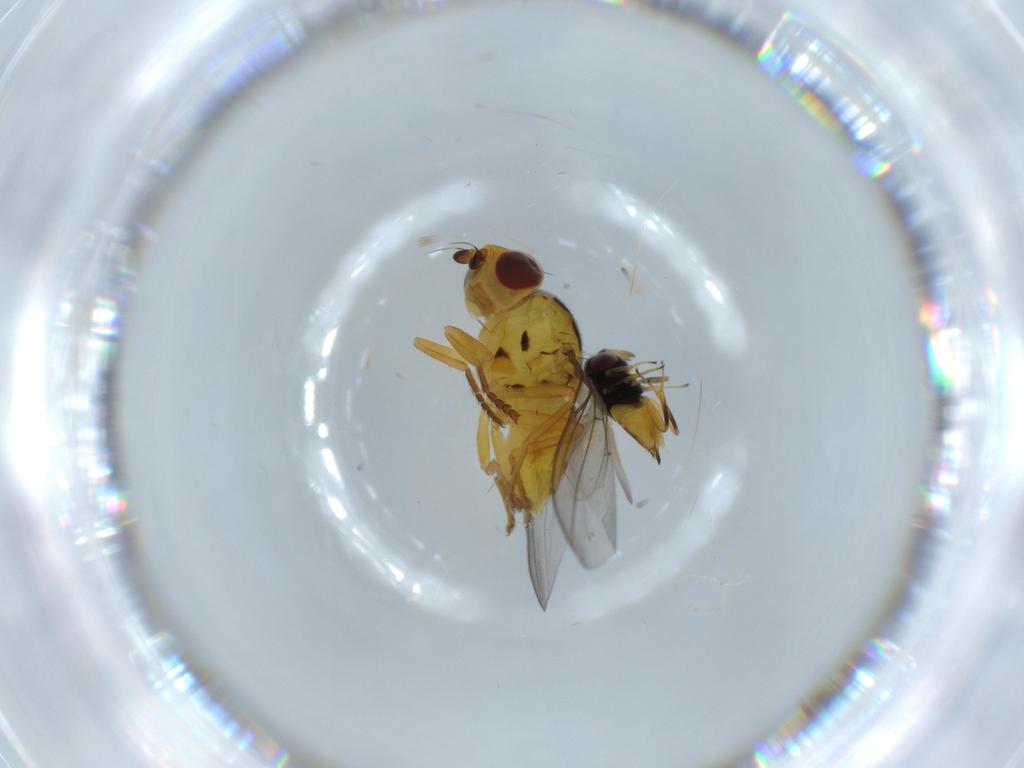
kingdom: Animalia
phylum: Arthropoda
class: Insecta
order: Diptera
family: Chloropidae
